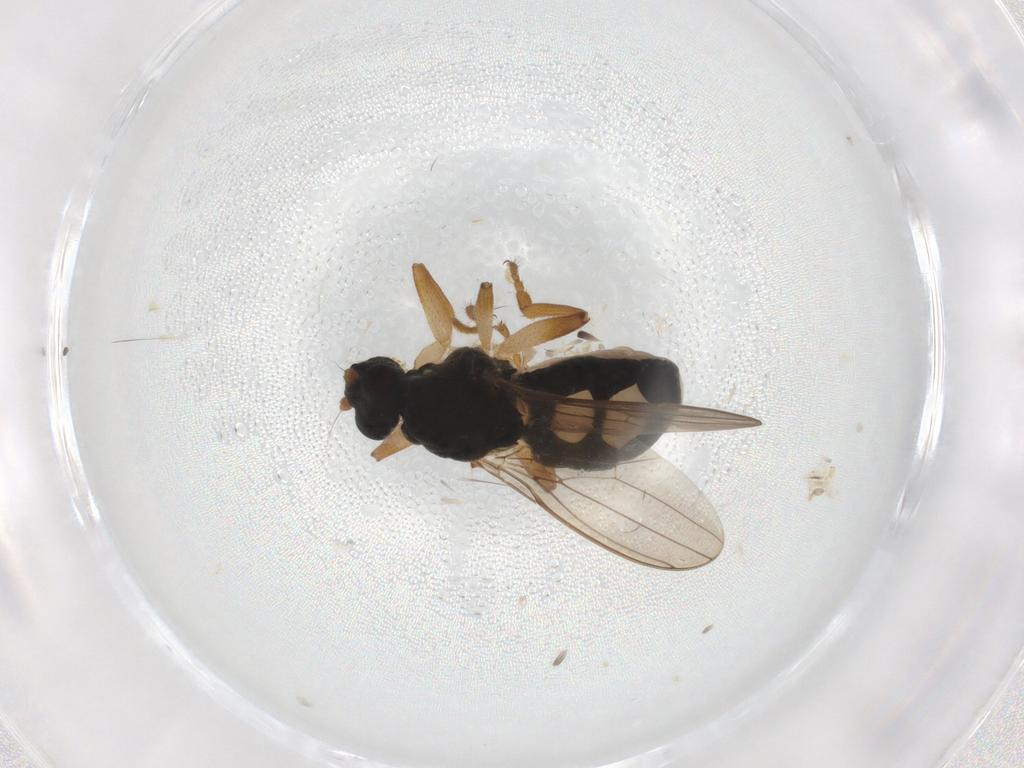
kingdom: Animalia
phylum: Arthropoda
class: Insecta
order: Diptera
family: Sphaeroceridae
